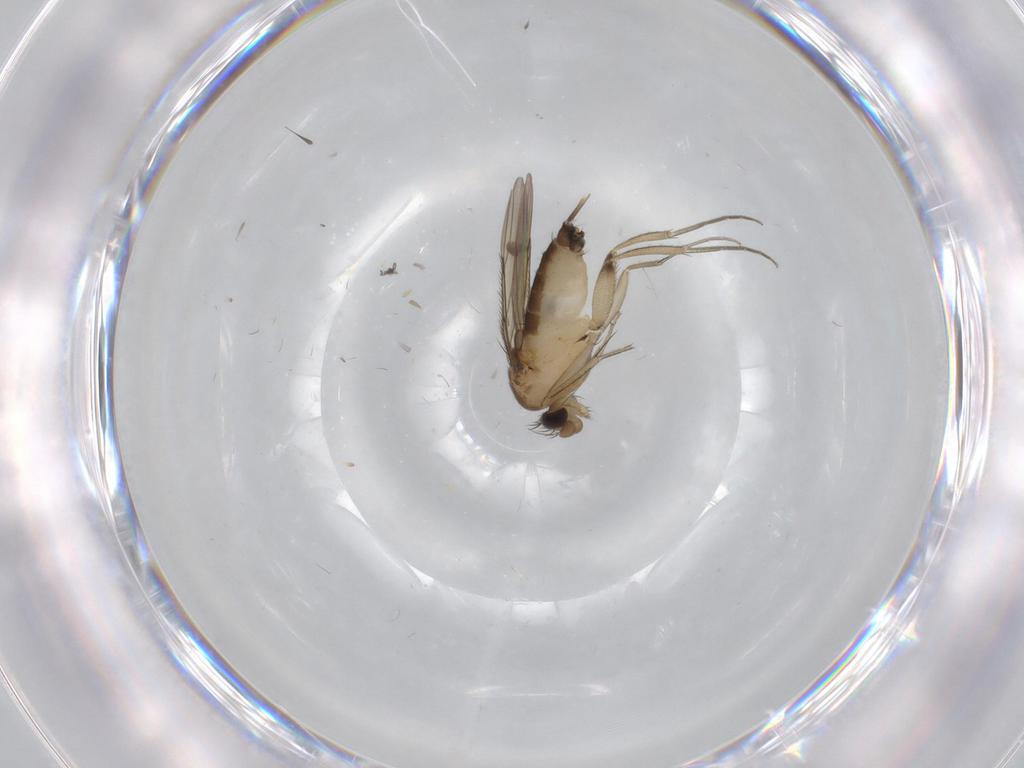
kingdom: Animalia
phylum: Arthropoda
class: Insecta
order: Diptera
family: Phoridae
